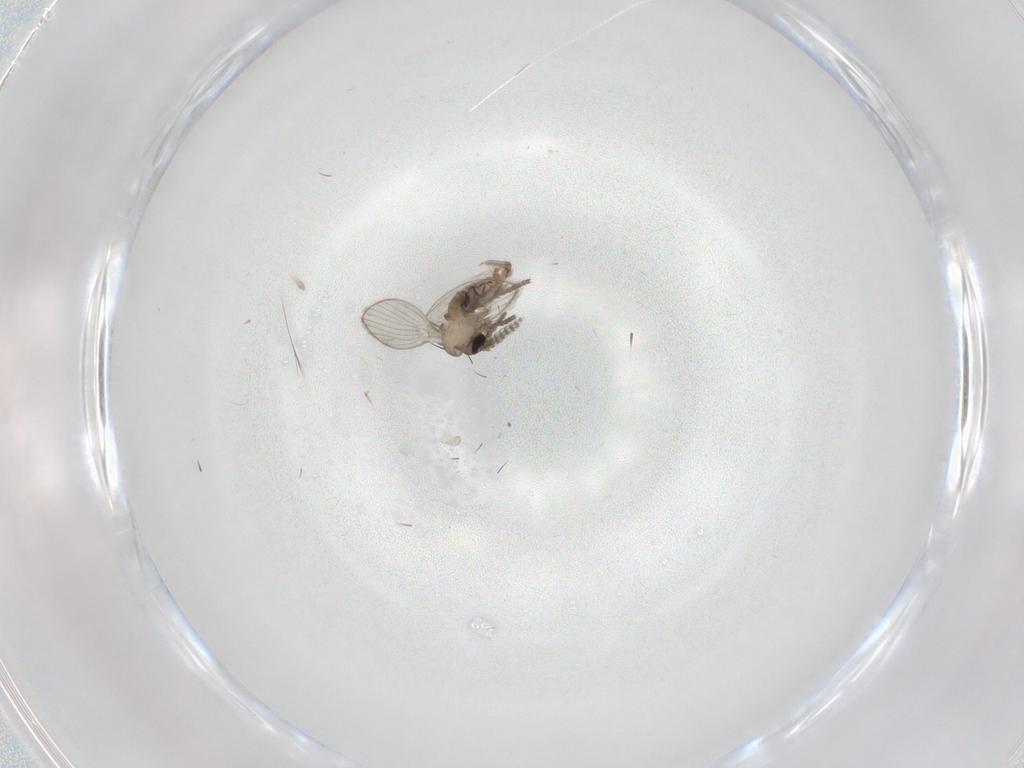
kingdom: Animalia
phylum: Arthropoda
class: Insecta
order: Diptera
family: Psychodidae
